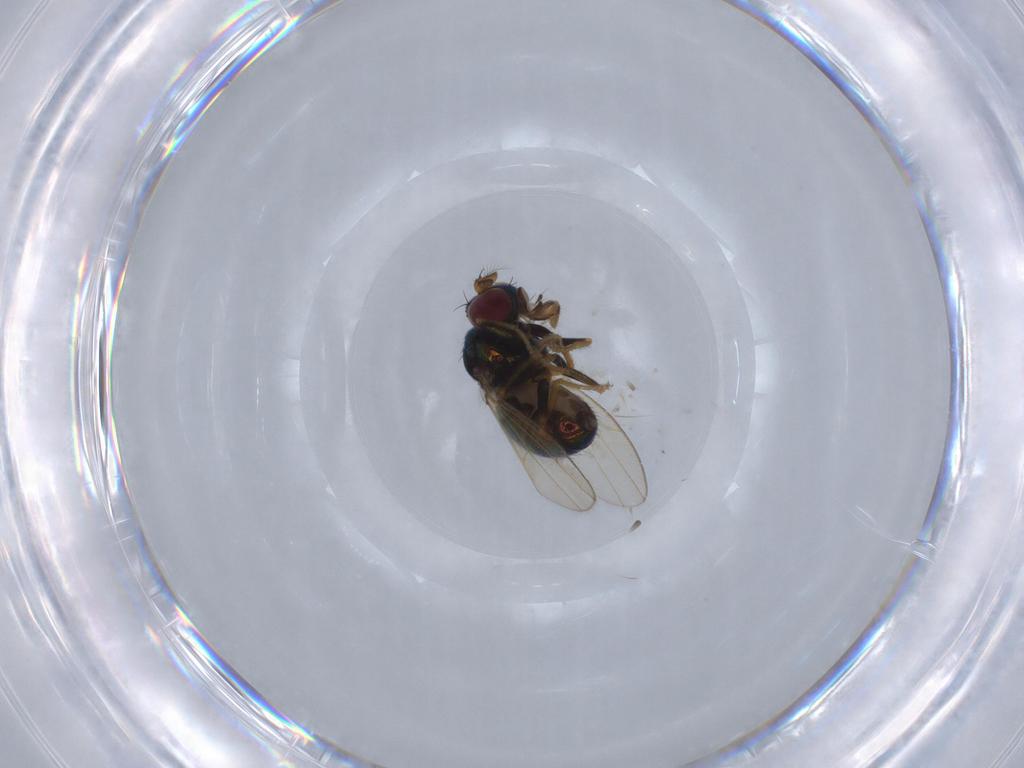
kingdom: Animalia
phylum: Arthropoda
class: Insecta
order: Diptera
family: Ephydridae
